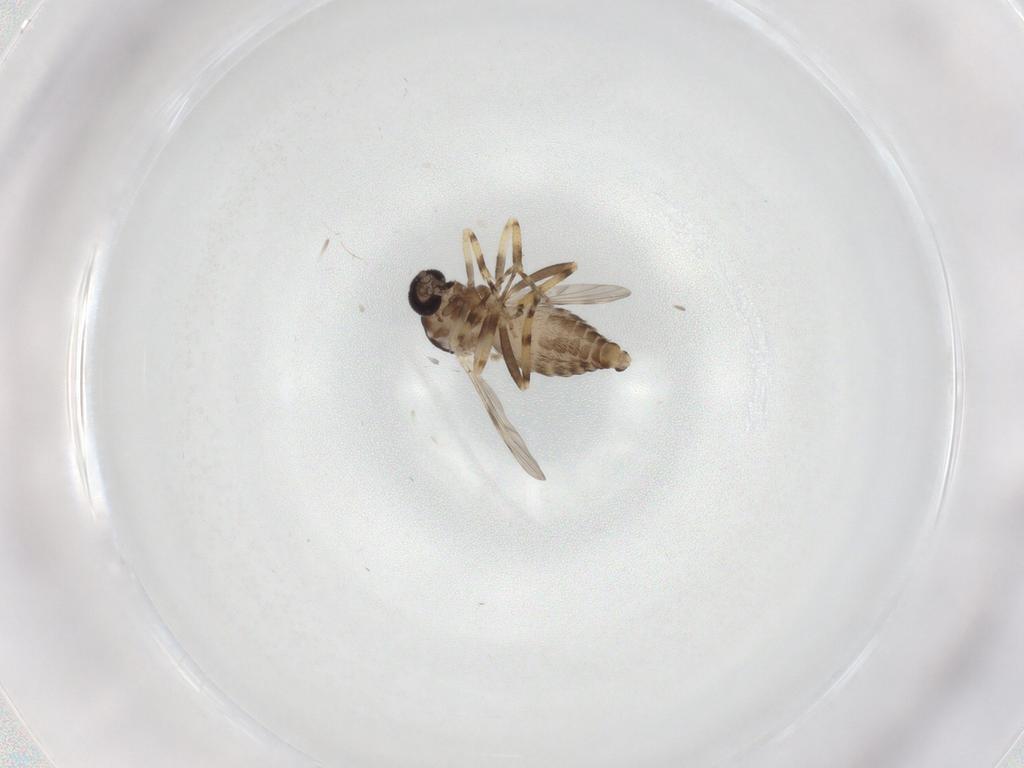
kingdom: Animalia
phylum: Arthropoda
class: Insecta
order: Diptera
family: Ceratopogonidae
